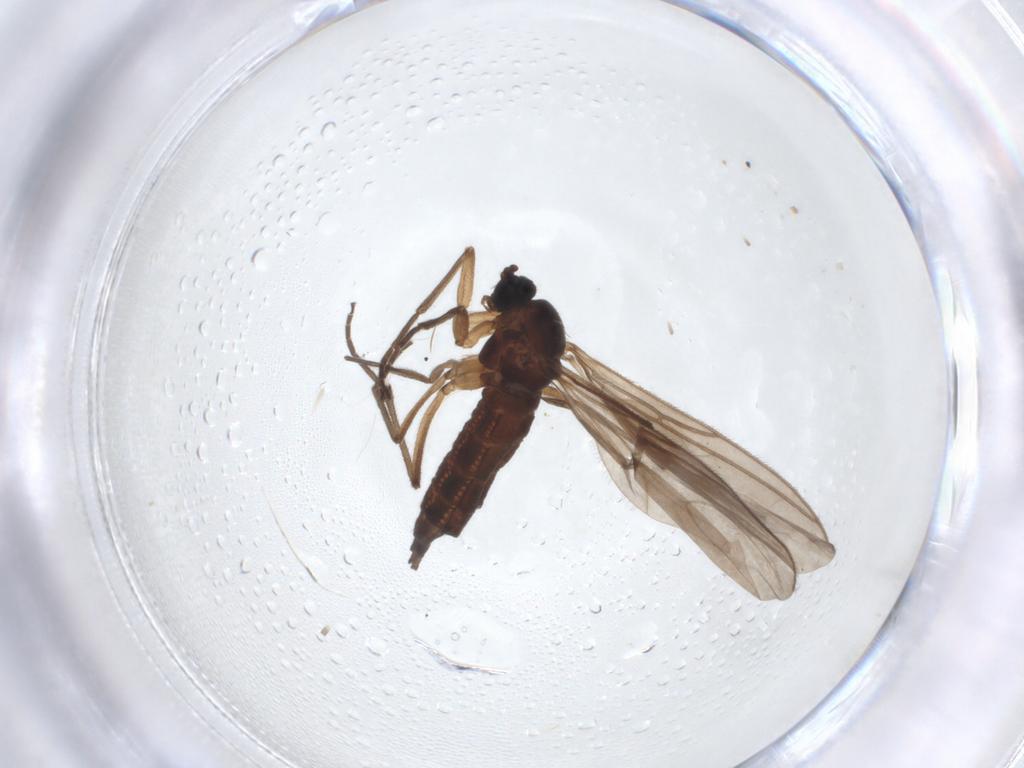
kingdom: Animalia
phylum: Arthropoda
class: Insecta
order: Diptera
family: Sciaridae
